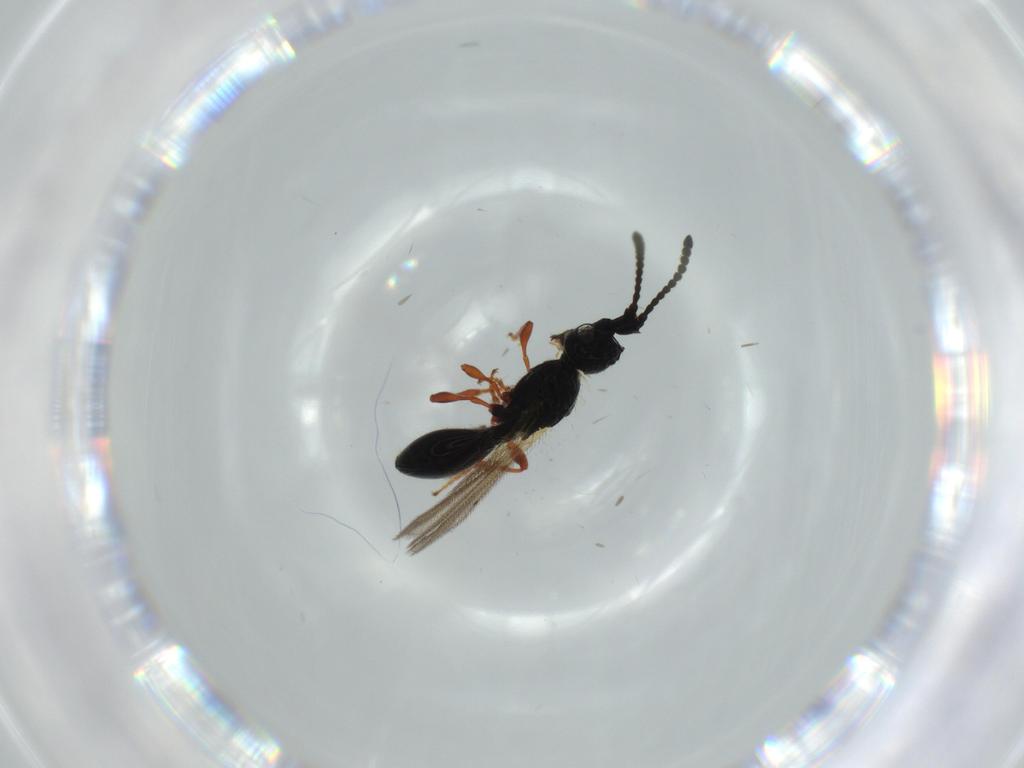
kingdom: Animalia
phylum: Arthropoda
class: Insecta
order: Hymenoptera
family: Diapriidae
